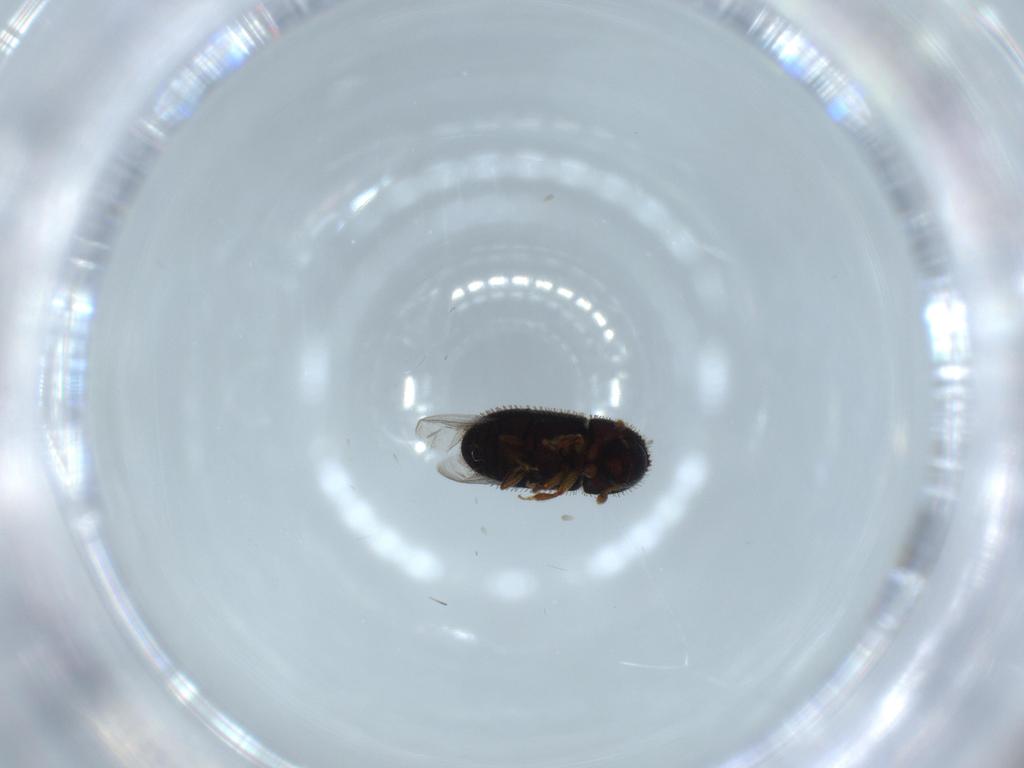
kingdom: Animalia
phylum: Arthropoda
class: Insecta
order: Coleoptera
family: Curculionidae
